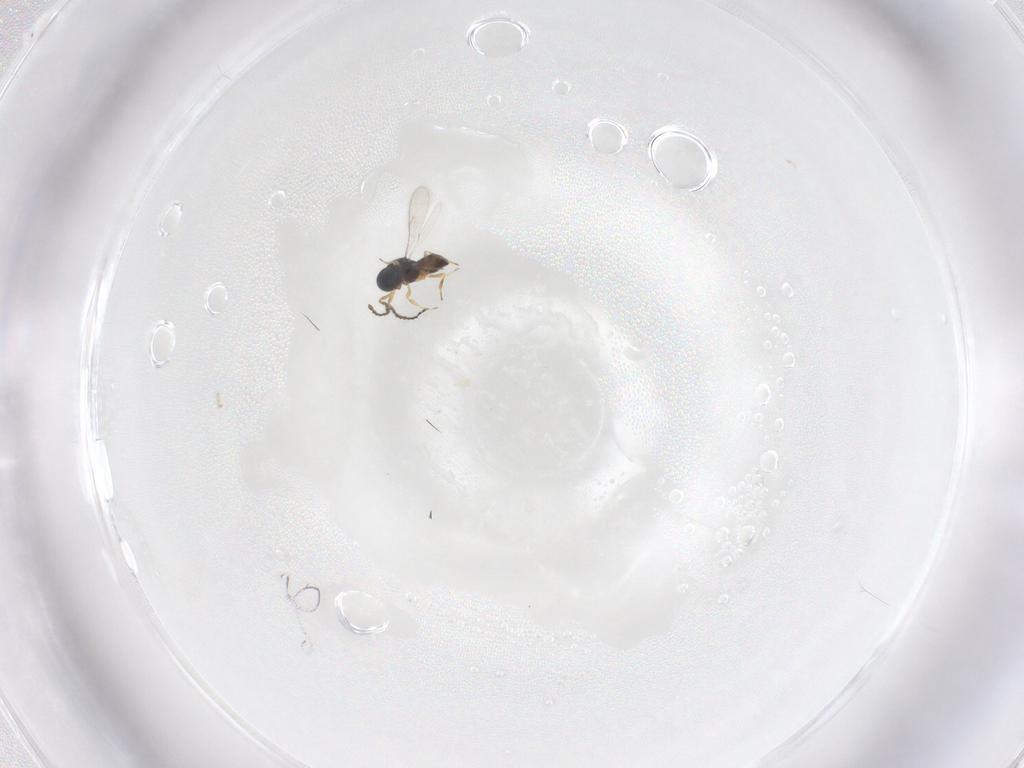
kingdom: Animalia
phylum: Arthropoda
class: Insecta
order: Hymenoptera
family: Scelionidae
